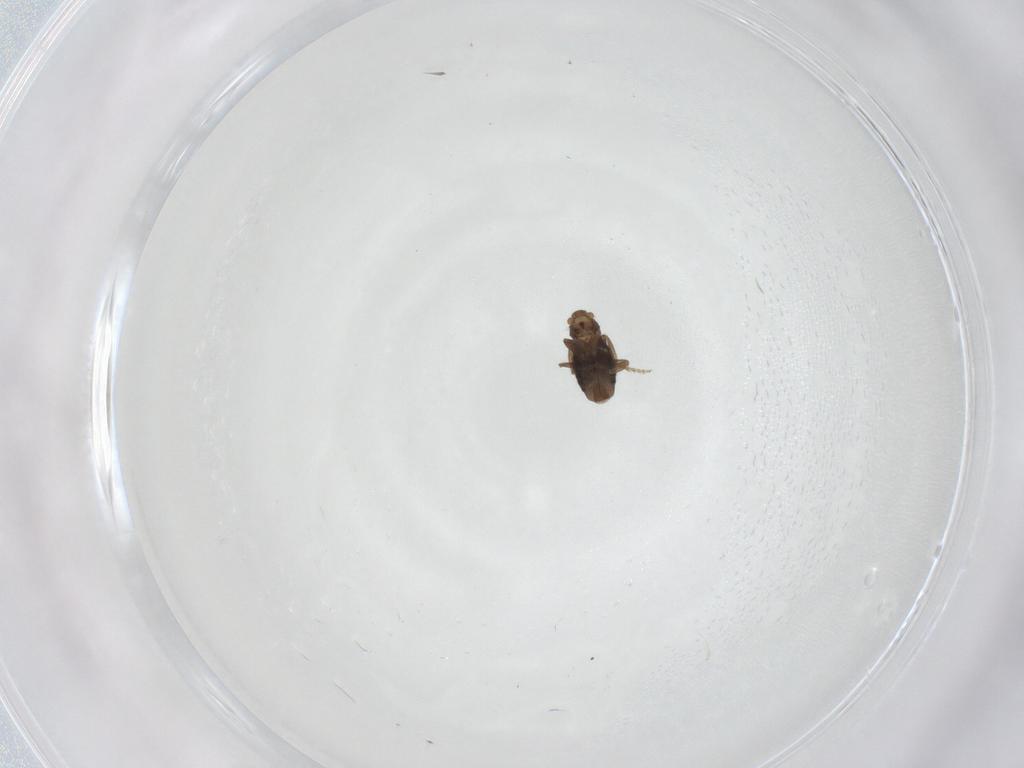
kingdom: Animalia
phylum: Arthropoda
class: Insecta
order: Diptera
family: Phoridae
